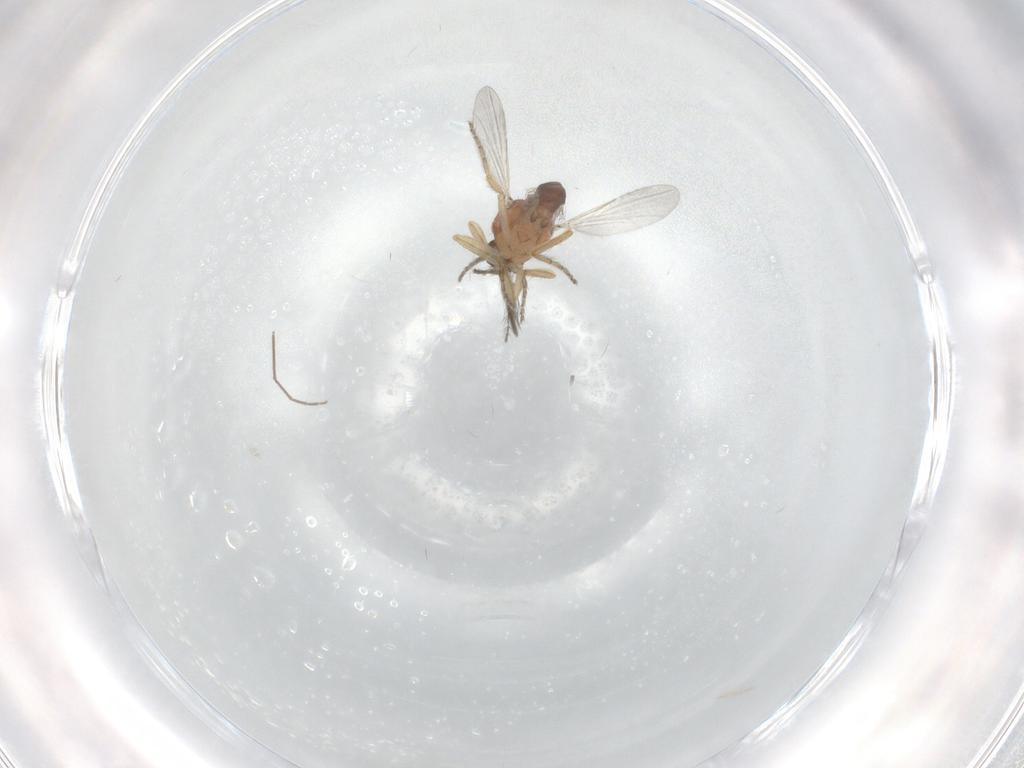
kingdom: Animalia
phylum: Arthropoda
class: Insecta
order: Diptera
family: Ceratopogonidae
